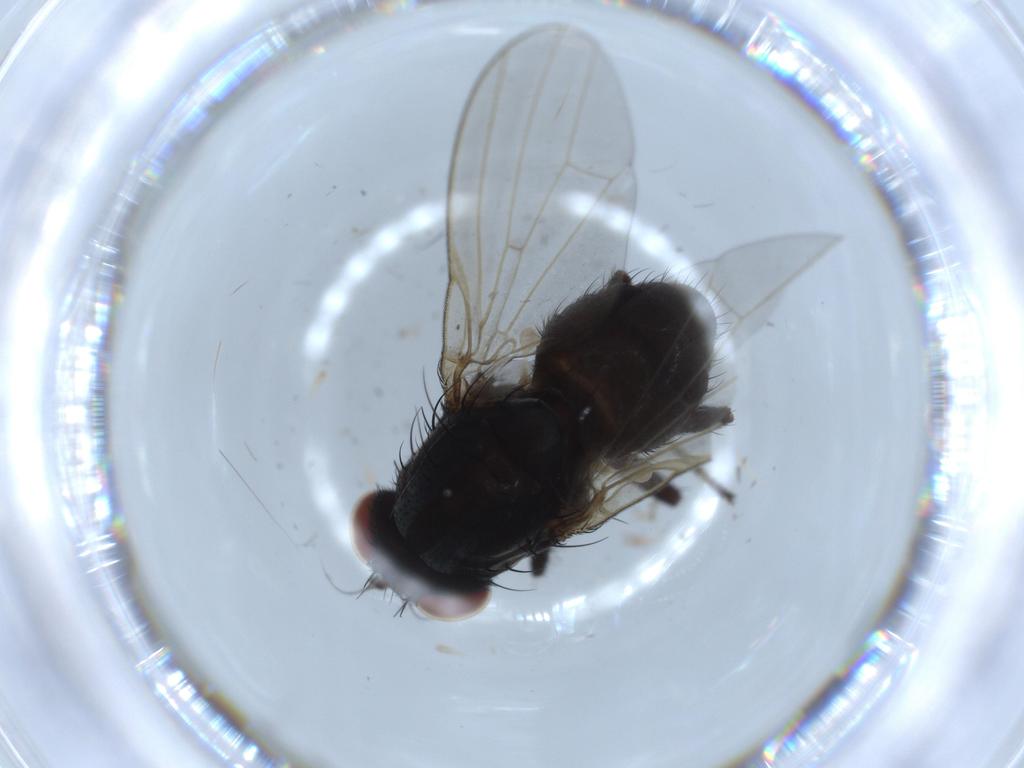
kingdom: Animalia
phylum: Arthropoda
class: Insecta
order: Diptera
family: Lauxaniidae
